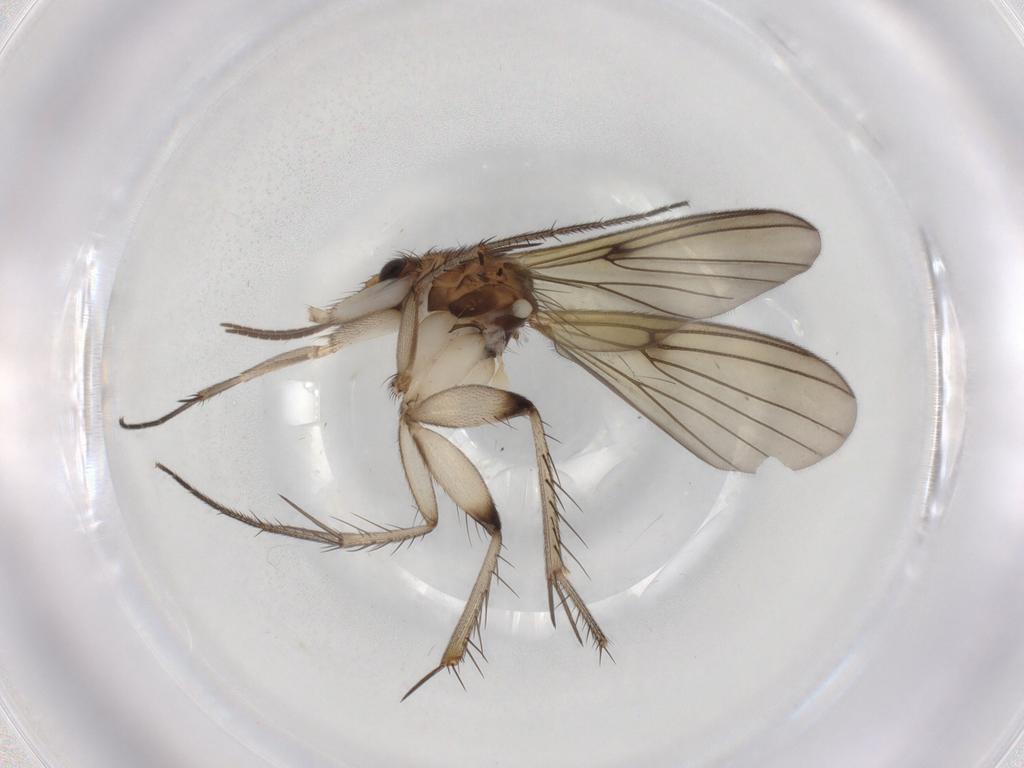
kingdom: Animalia
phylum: Arthropoda
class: Insecta
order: Diptera
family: Mycetophilidae
